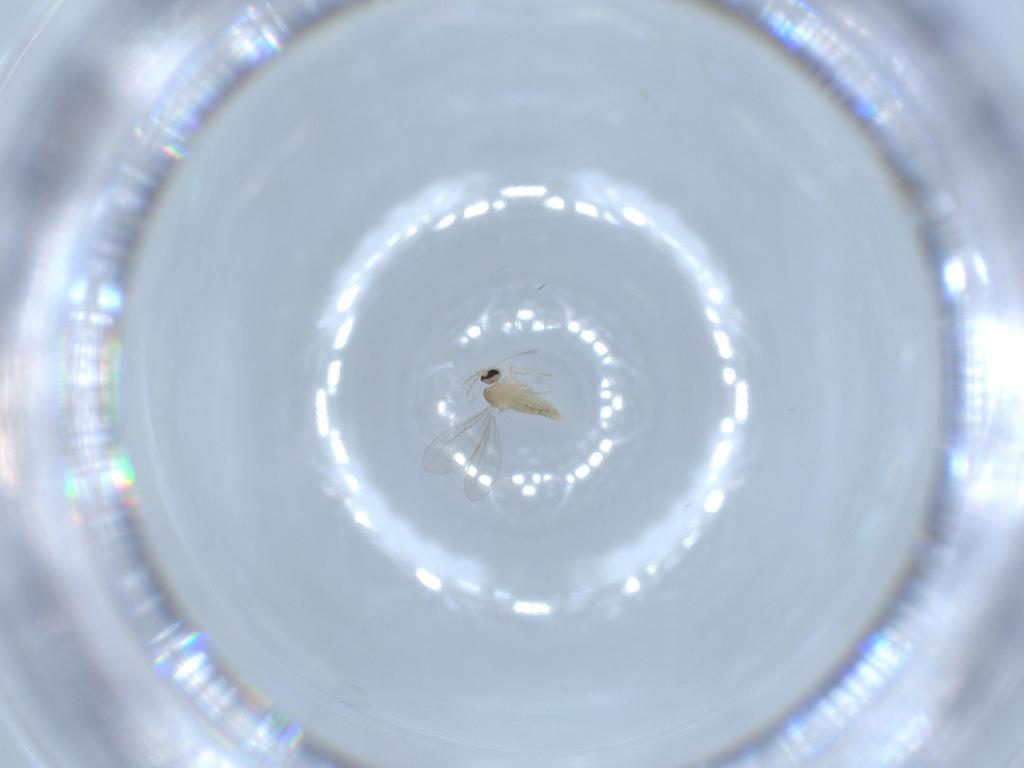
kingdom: Animalia
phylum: Arthropoda
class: Insecta
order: Diptera
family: Cecidomyiidae
